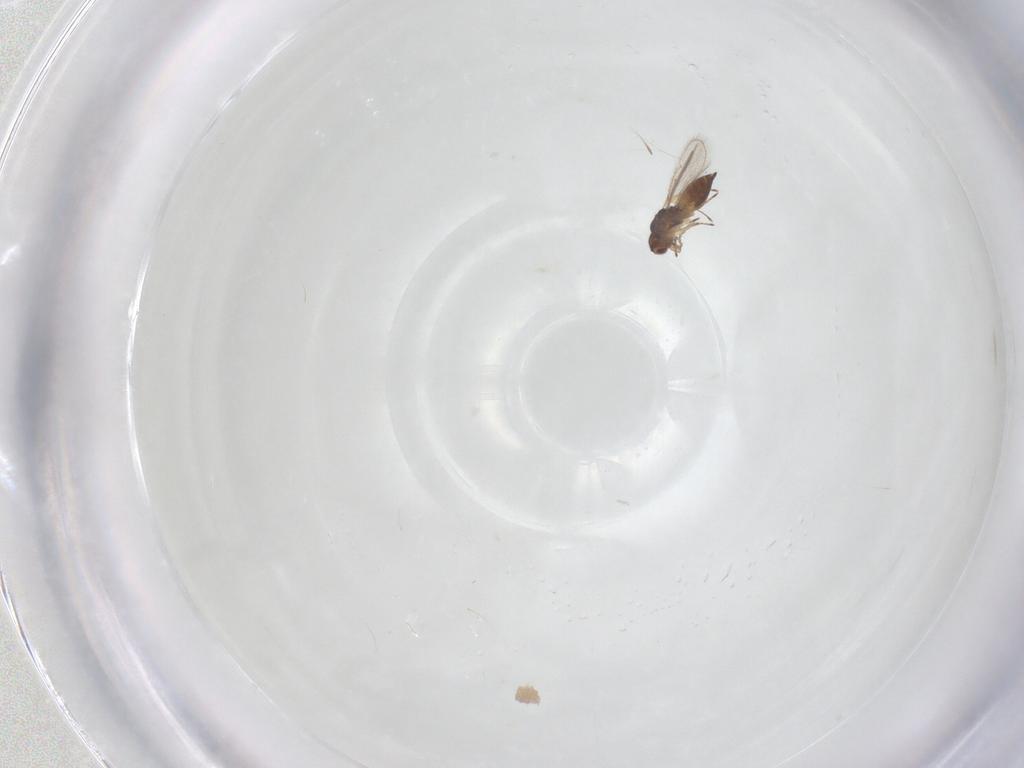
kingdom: Animalia
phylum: Arthropoda
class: Insecta
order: Hymenoptera
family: Eulophidae
